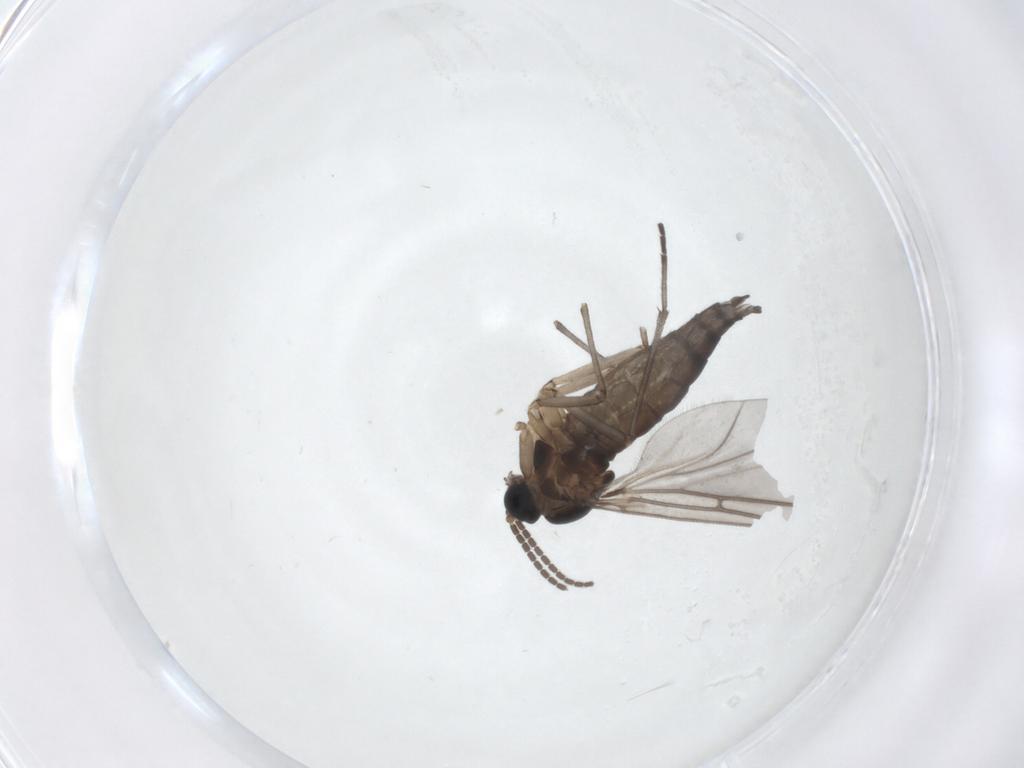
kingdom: Animalia
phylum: Arthropoda
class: Insecta
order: Diptera
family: Sciaridae
